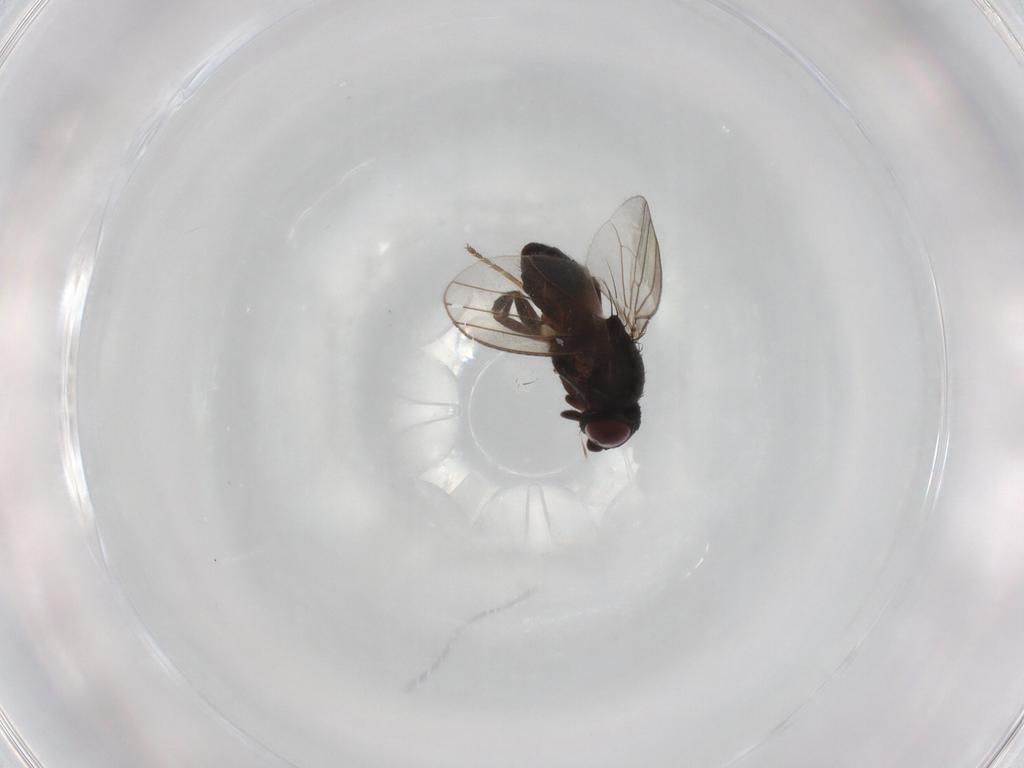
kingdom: Animalia
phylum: Arthropoda
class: Insecta
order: Diptera
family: Milichiidae
